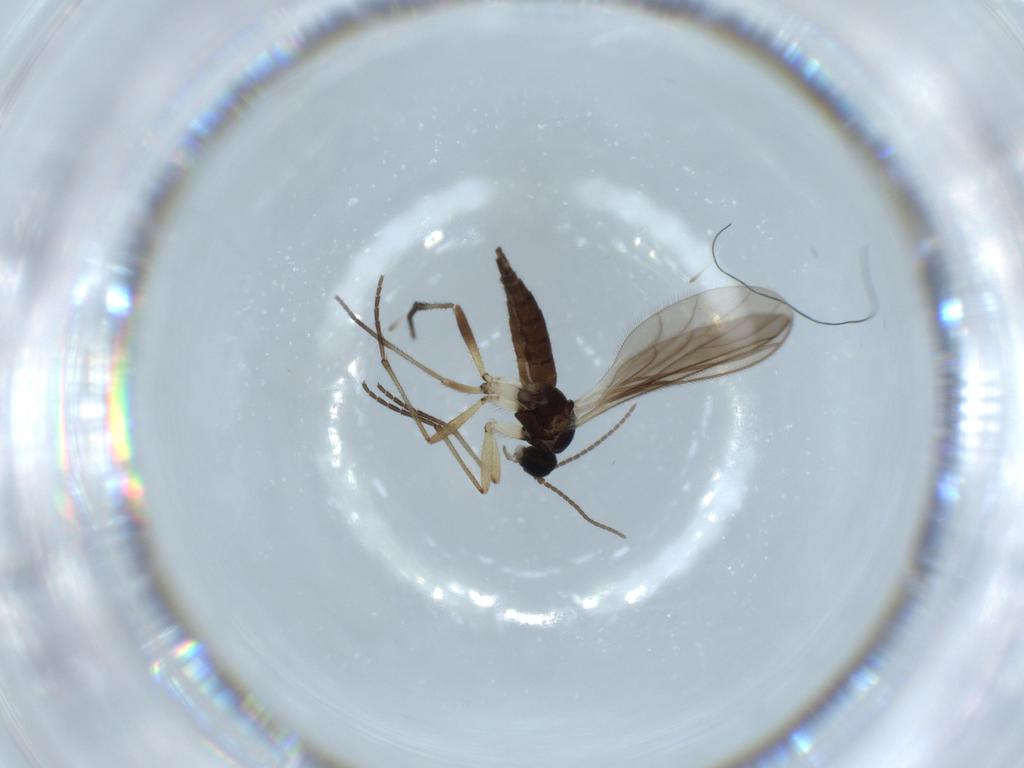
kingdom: Animalia
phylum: Arthropoda
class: Insecta
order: Diptera
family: Sciaridae
